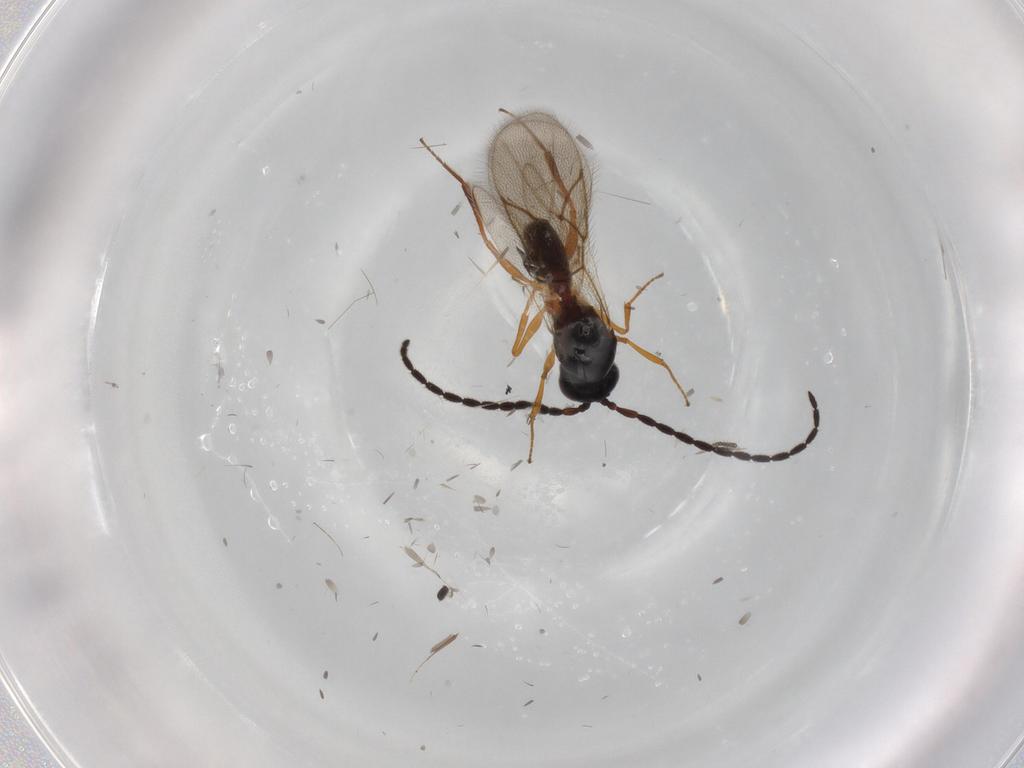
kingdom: Animalia
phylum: Arthropoda
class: Insecta
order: Hymenoptera
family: Figitidae
